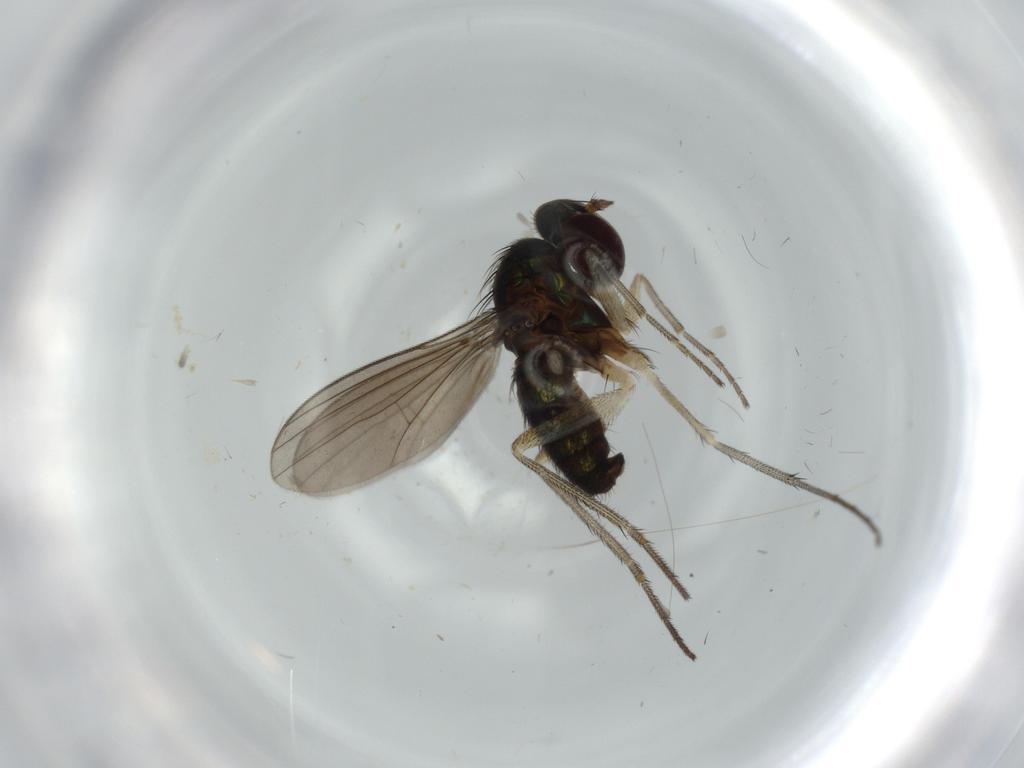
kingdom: Animalia
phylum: Arthropoda
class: Insecta
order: Diptera
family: Dolichopodidae
